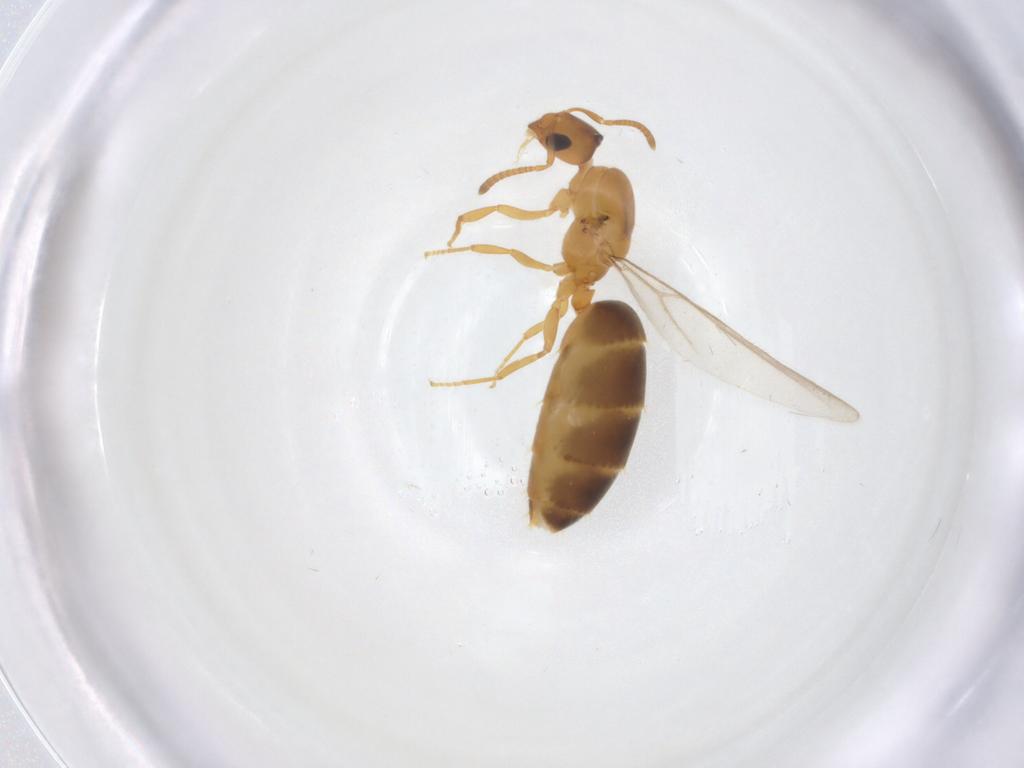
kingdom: Animalia
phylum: Arthropoda
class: Insecta
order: Hymenoptera
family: Formicidae
